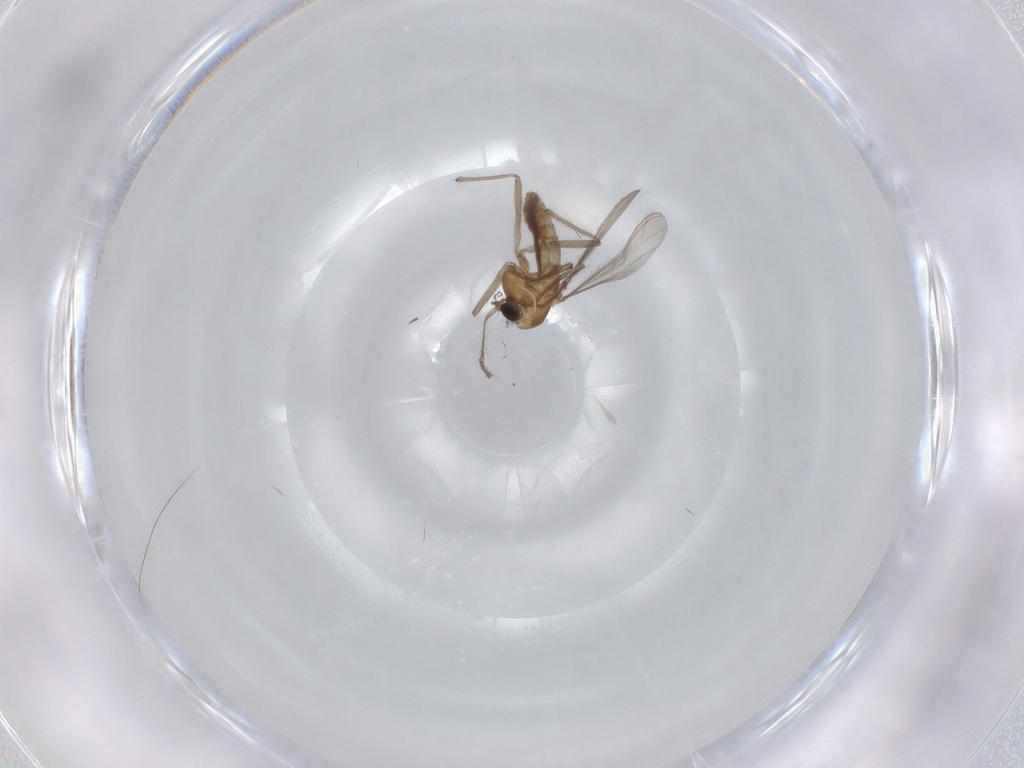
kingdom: Animalia
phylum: Arthropoda
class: Insecta
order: Diptera
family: Chironomidae
